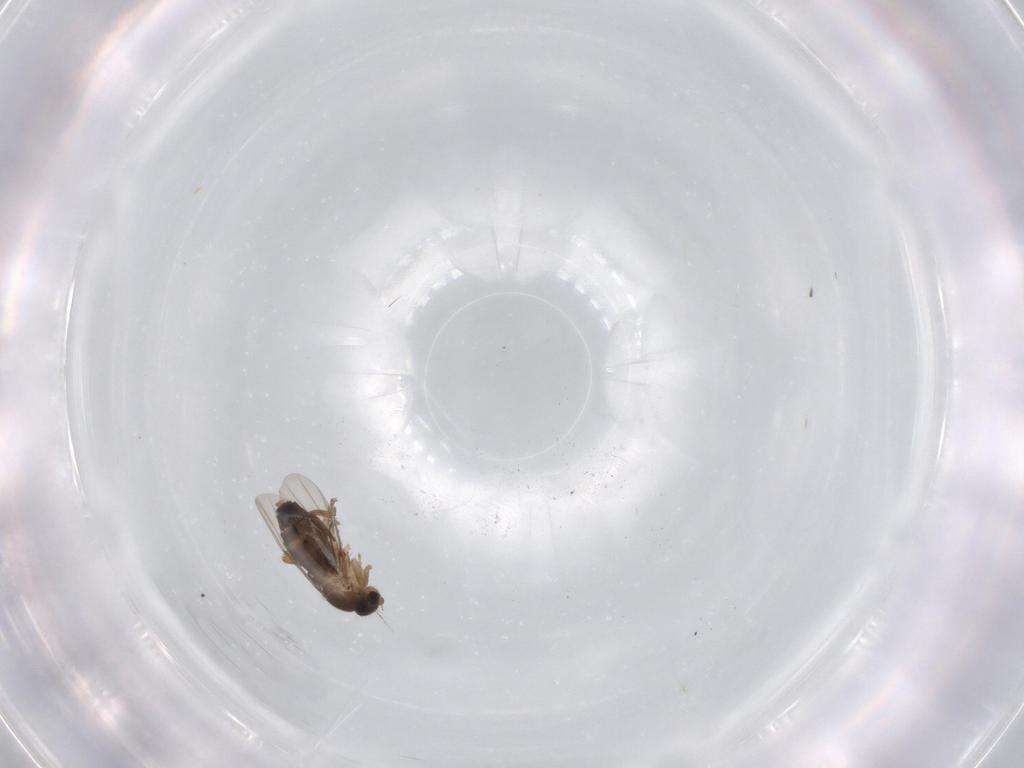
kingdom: Animalia
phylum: Arthropoda
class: Insecta
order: Diptera
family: Phoridae
